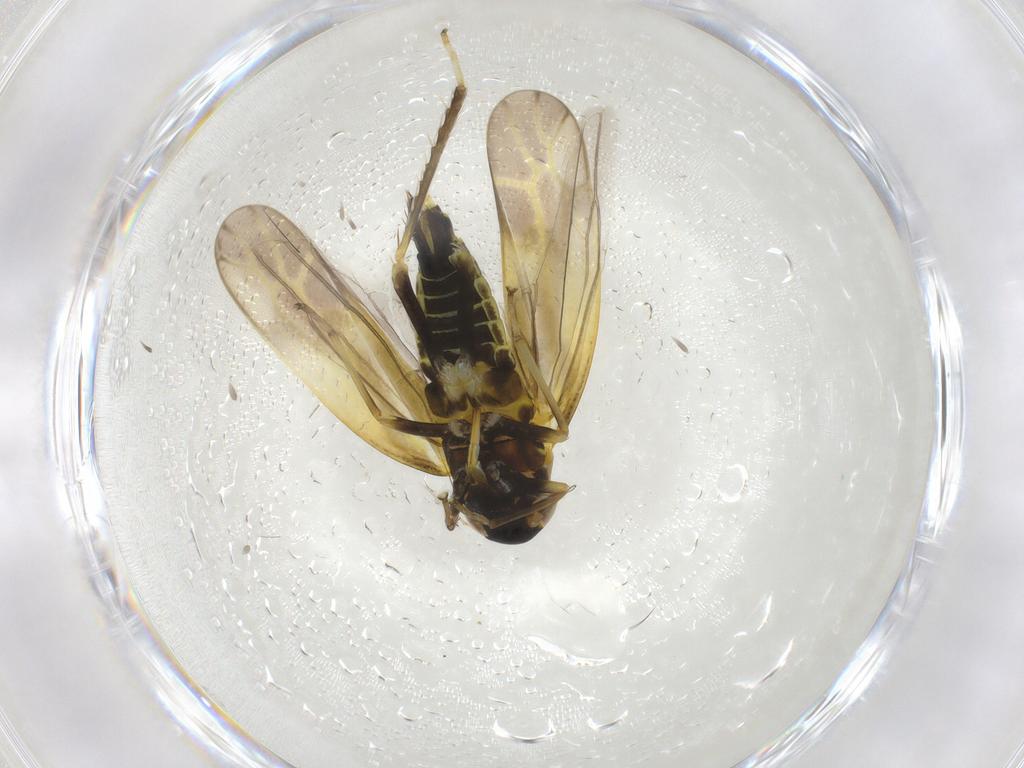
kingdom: Animalia
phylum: Arthropoda
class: Insecta
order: Hemiptera
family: Cicadellidae
